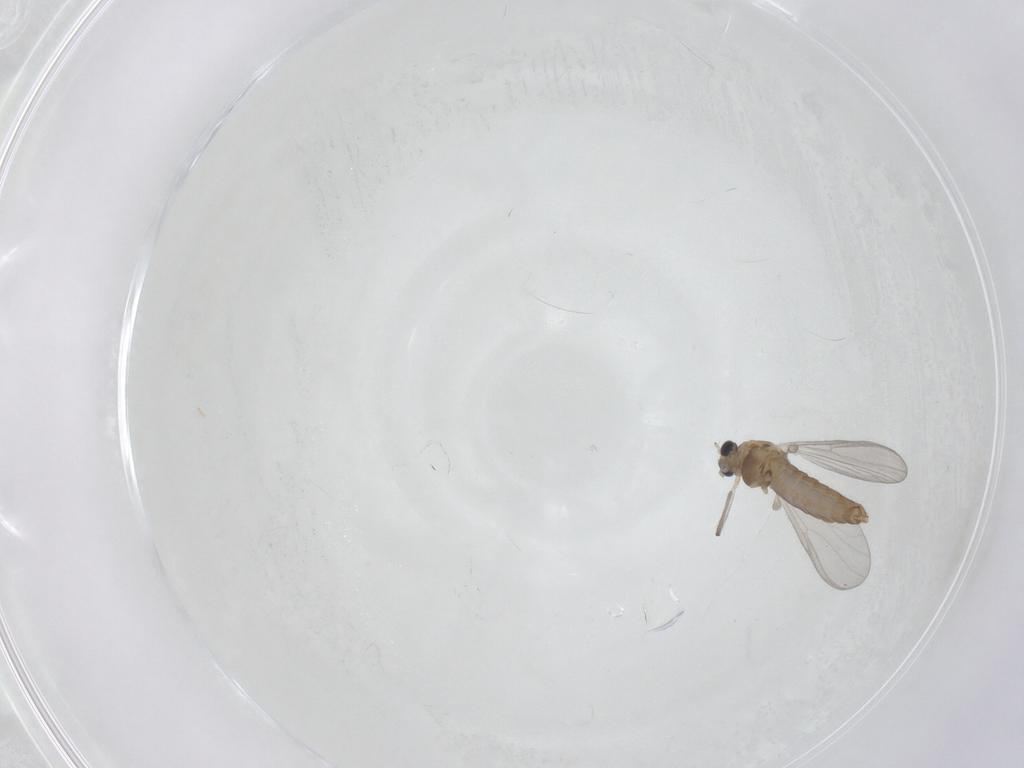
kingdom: Animalia
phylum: Arthropoda
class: Insecta
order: Diptera
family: Chironomidae
